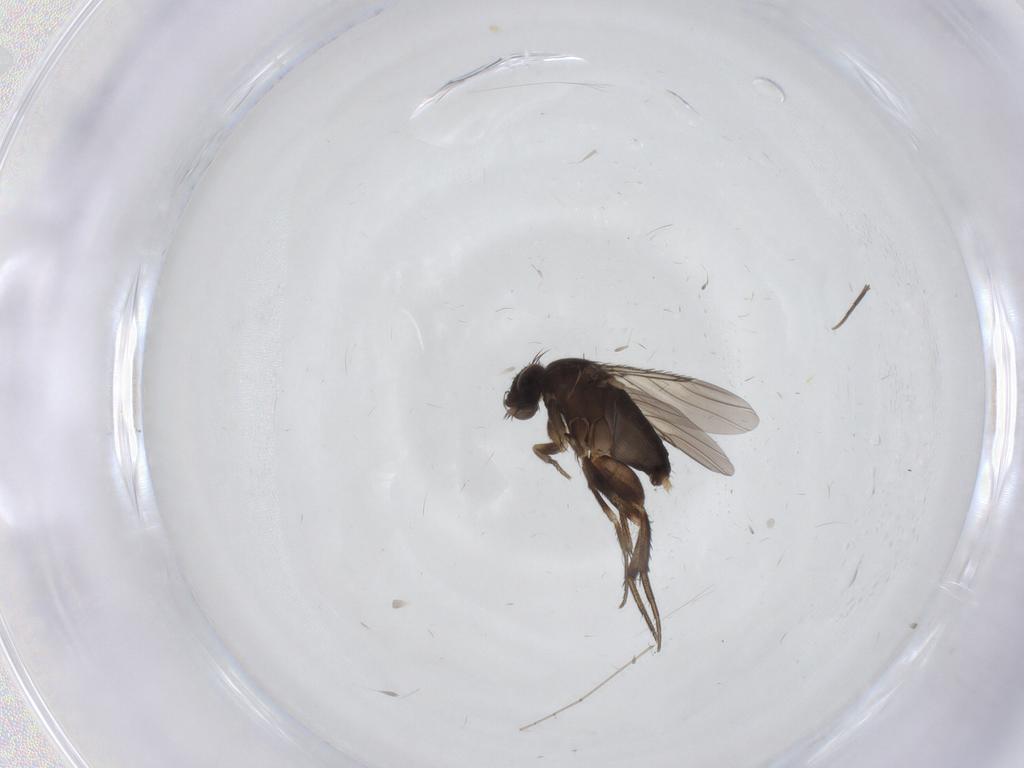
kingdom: Animalia
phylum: Arthropoda
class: Insecta
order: Diptera
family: Phoridae
